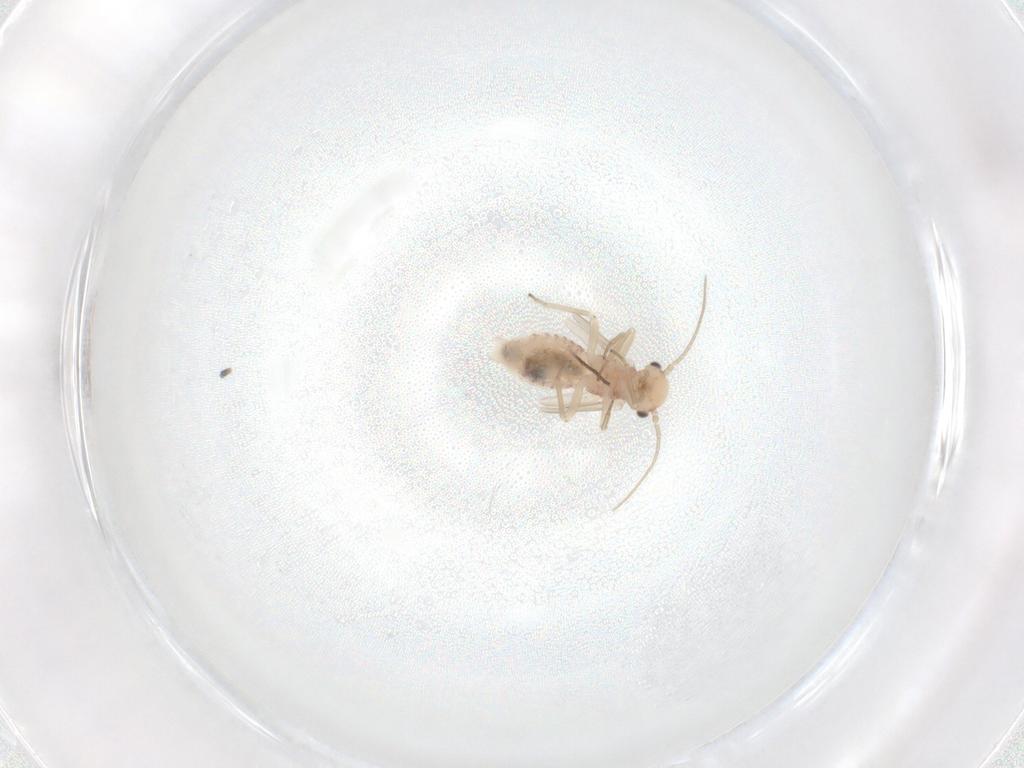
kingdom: Animalia
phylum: Arthropoda
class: Insecta
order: Psocodea
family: Lachesillidae
